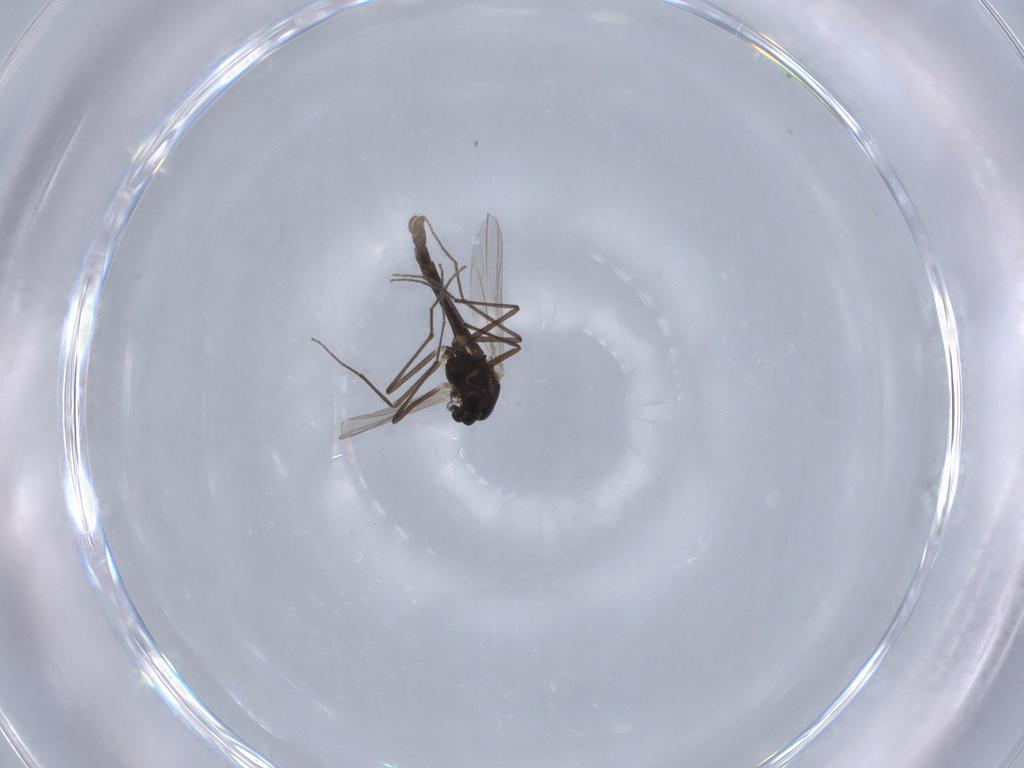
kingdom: Animalia
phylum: Arthropoda
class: Insecta
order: Diptera
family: Chironomidae
